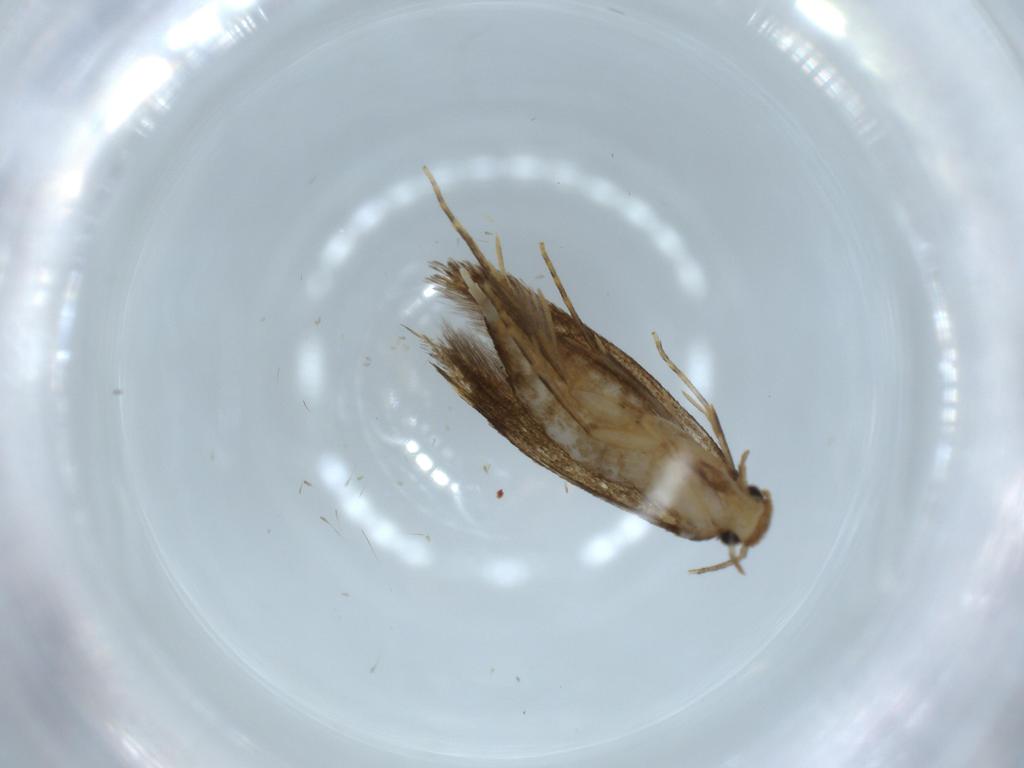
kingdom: Animalia
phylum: Arthropoda
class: Insecta
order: Lepidoptera
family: Tineidae
